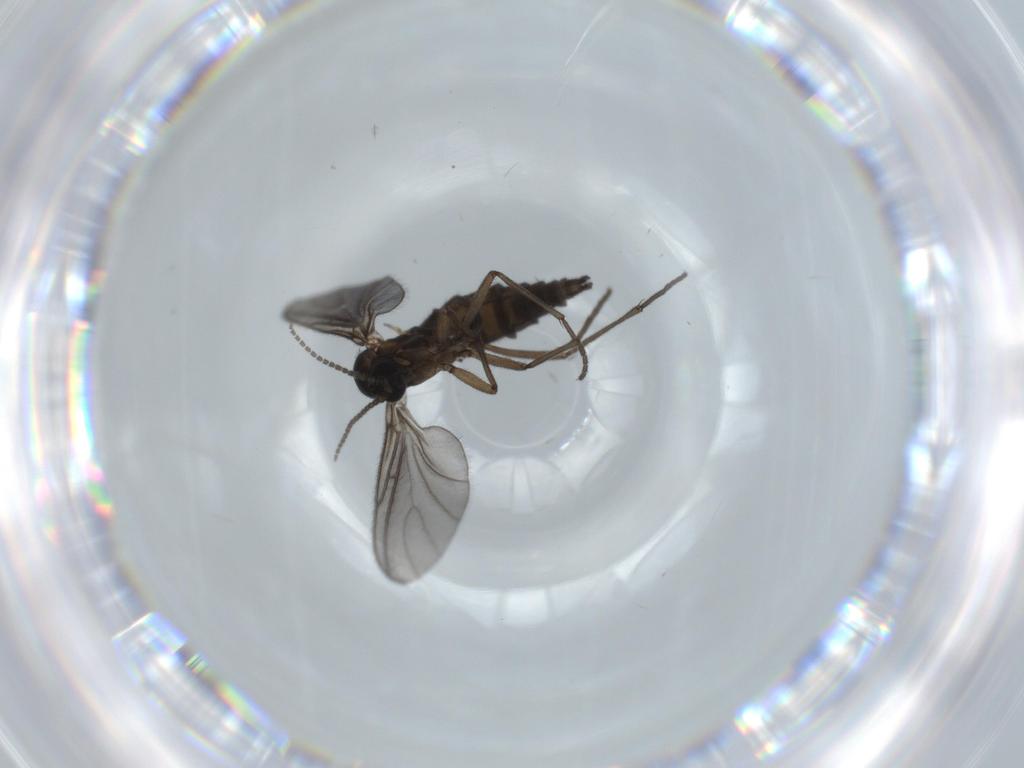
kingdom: Animalia
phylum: Arthropoda
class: Insecta
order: Diptera
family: Sciaridae
